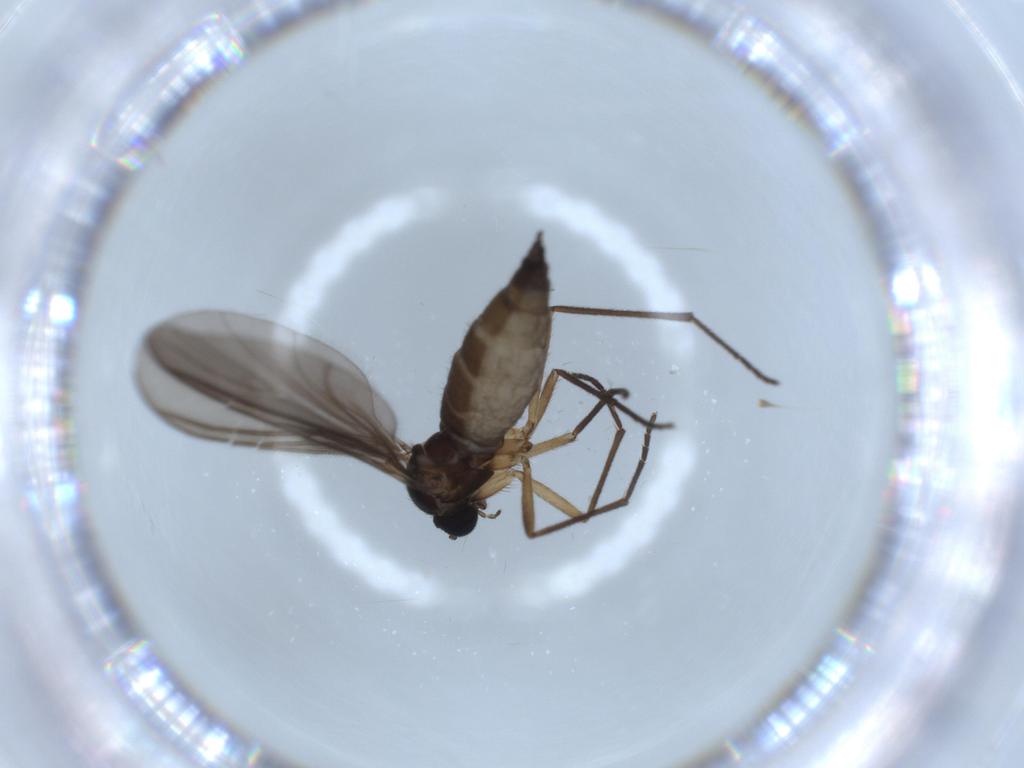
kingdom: Animalia
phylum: Arthropoda
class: Insecta
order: Diptera
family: Sciaridae
